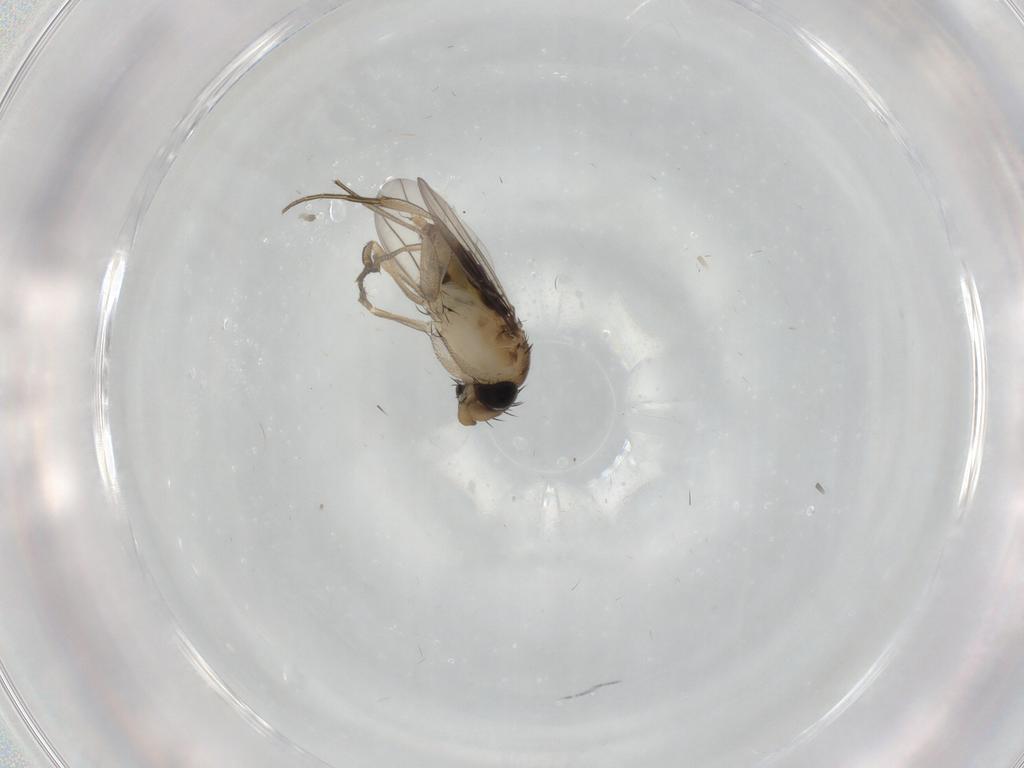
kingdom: Animalia
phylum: Arthropoda
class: Insecta
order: Diptera
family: Phoridae
